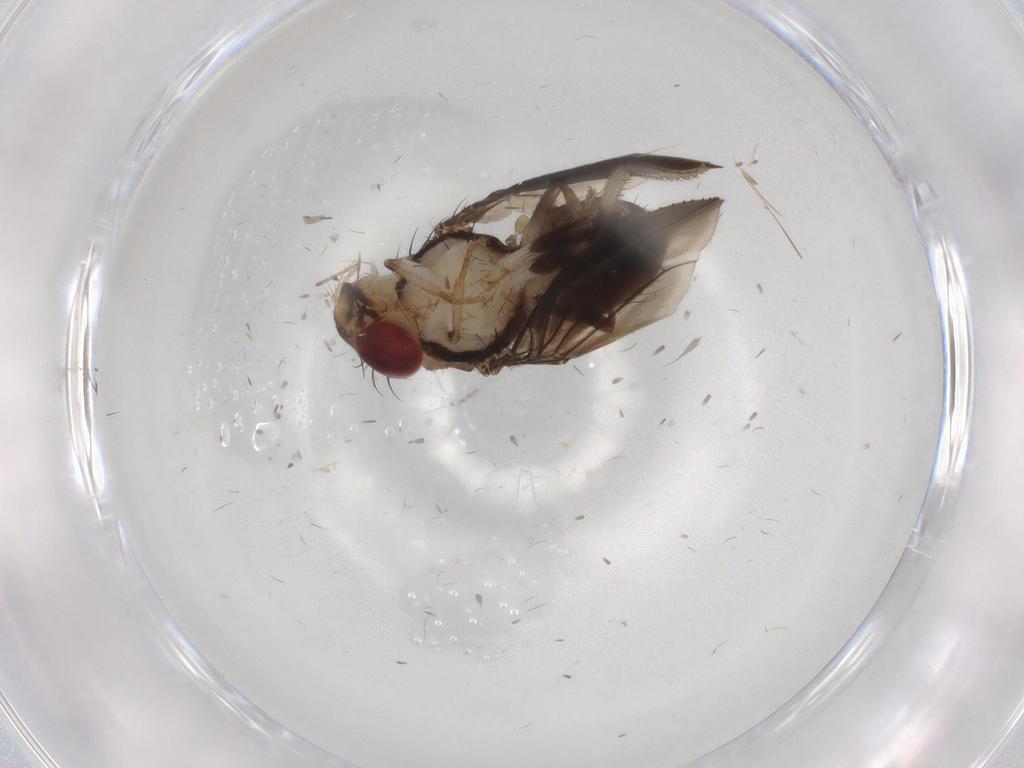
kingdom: Animalia
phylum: Arthropoda
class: Insecta
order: Diptera
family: Drosophilidae
